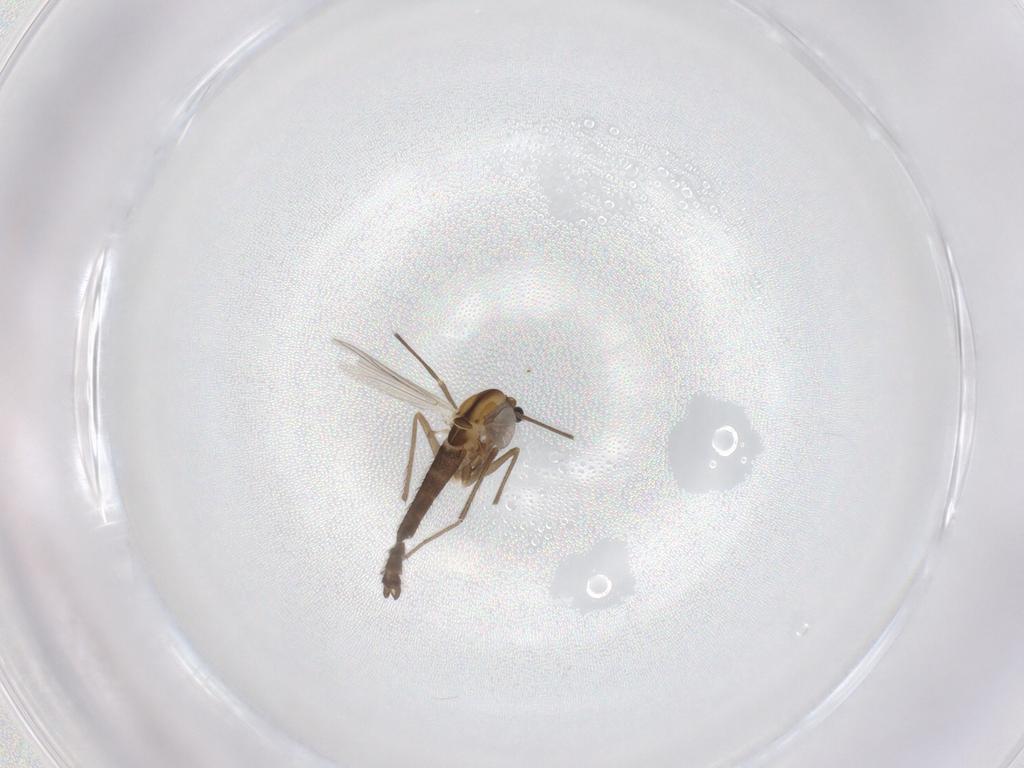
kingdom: Animalia
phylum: Arthropoda
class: Insecta
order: Diptera
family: Chironomidae
